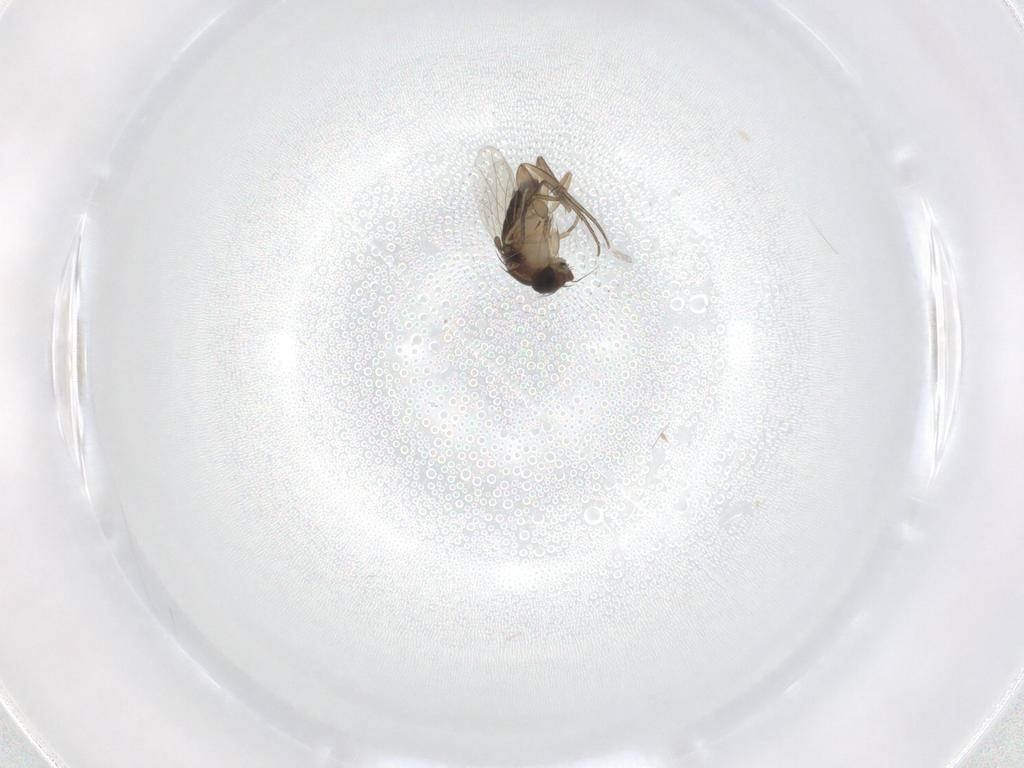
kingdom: Animalia
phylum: Arthropoda
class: Insecta
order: Diptera
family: Sciaridae
